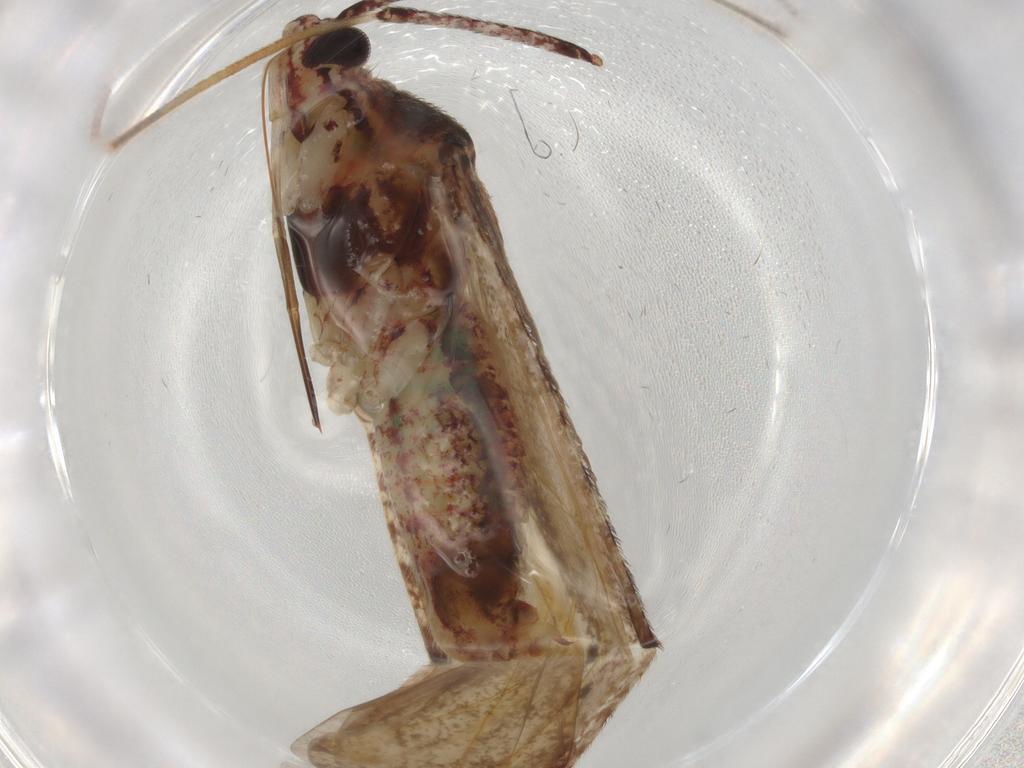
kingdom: Animalia
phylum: Arthropoda
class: Insecta
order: Hemiptera
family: Miridae
